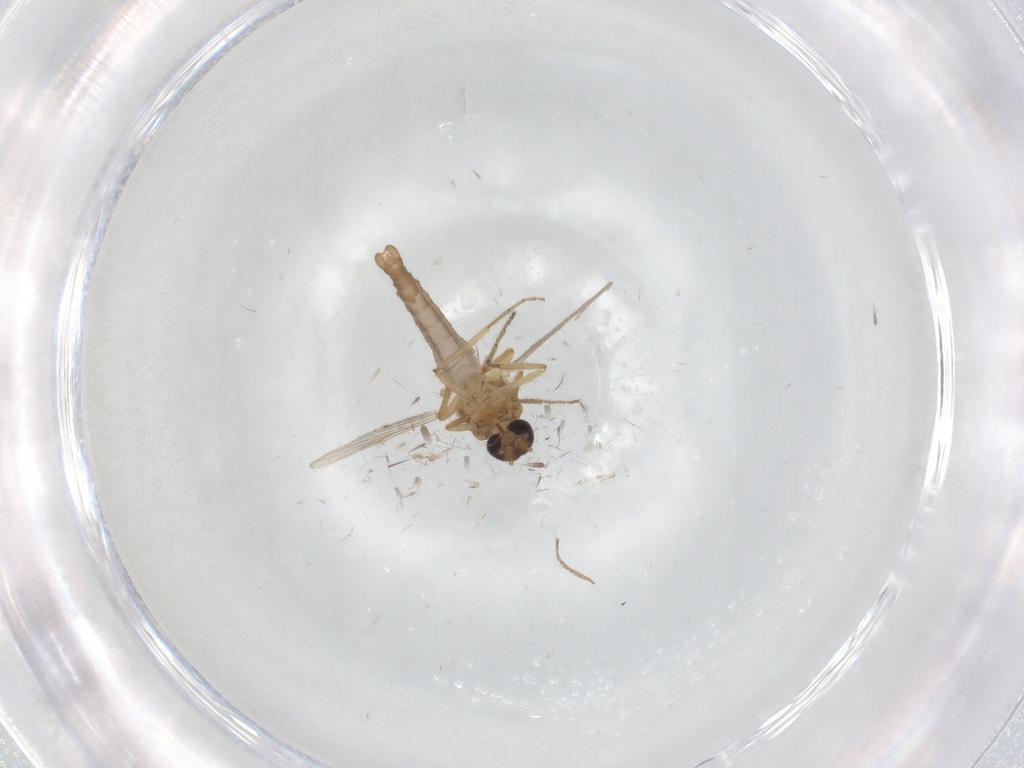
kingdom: Animalia
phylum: Arthropoda
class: Insecta
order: Diptera
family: Ceratopogonidae
